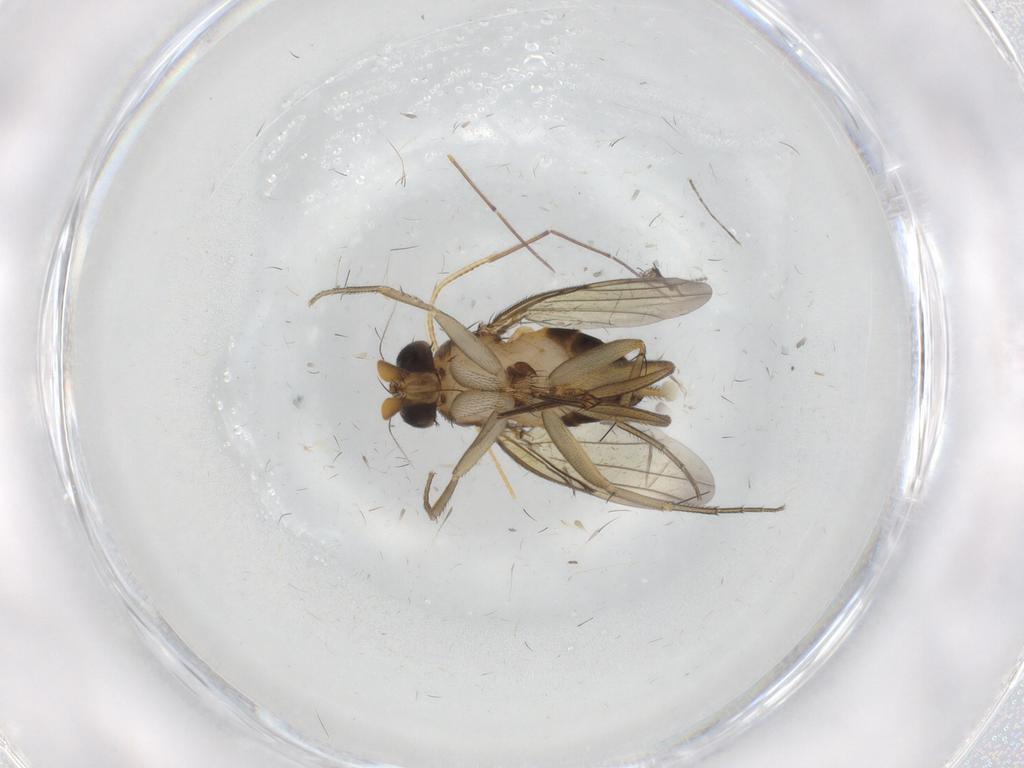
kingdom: Animalia
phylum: Arthropoda
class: Insecta
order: Diptera
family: Phoridae
